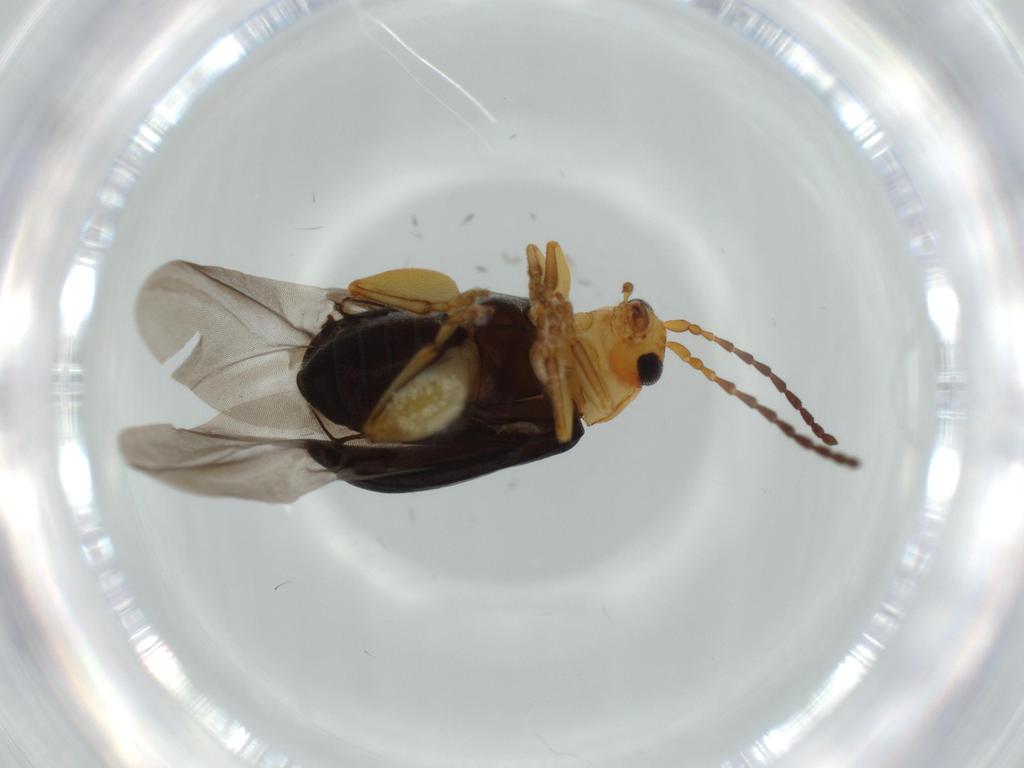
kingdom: Animalia
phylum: Arthropoda
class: Insecta
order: Coleoptera
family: Chrysomelidae
